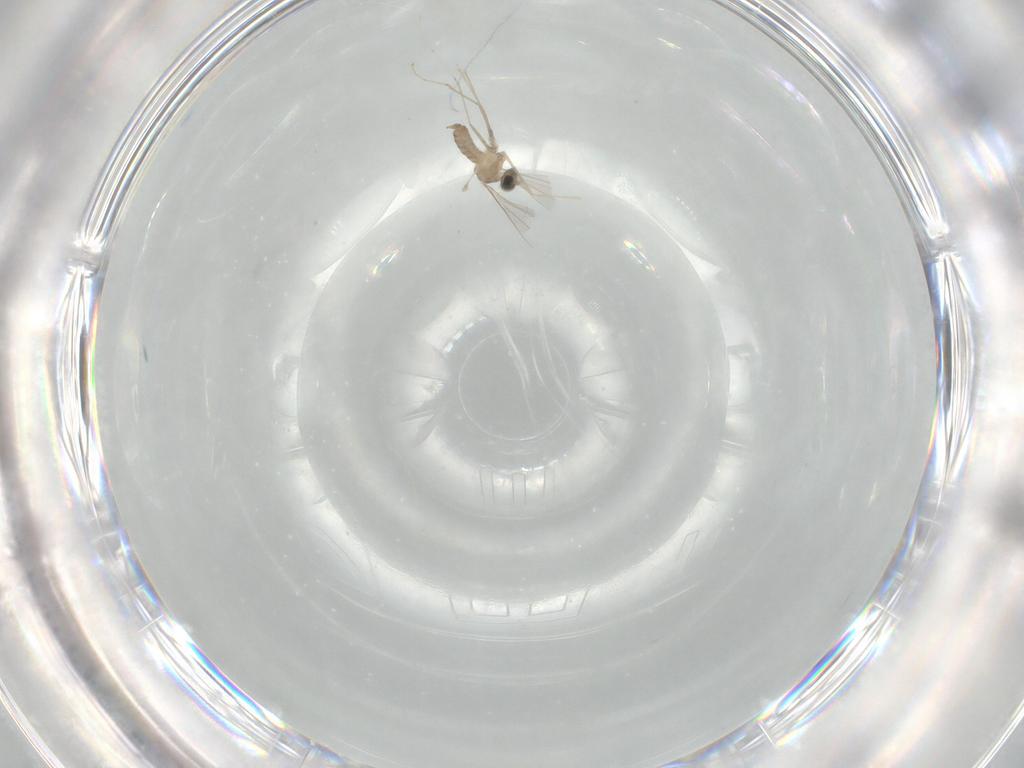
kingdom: Animalia
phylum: Arthropoda
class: Insecta
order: Diptera
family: Cecidomyiidae
